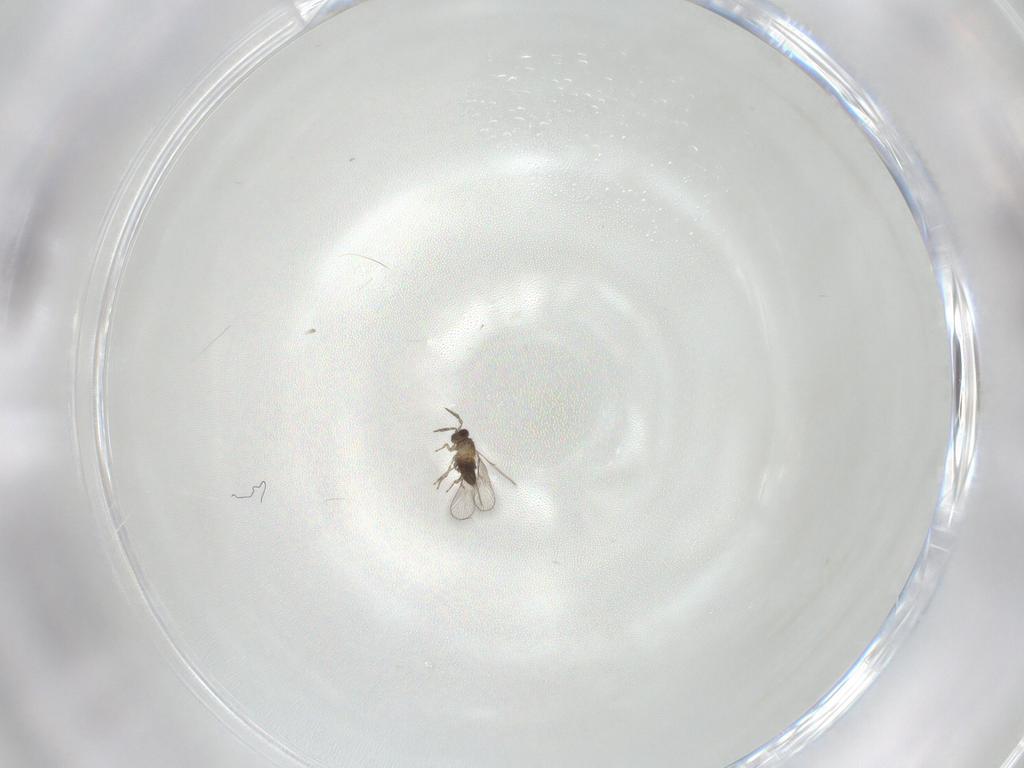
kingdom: Animalia
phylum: Arthropoda
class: Insecta
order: Hymenoptera
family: Trichogrammatidae
